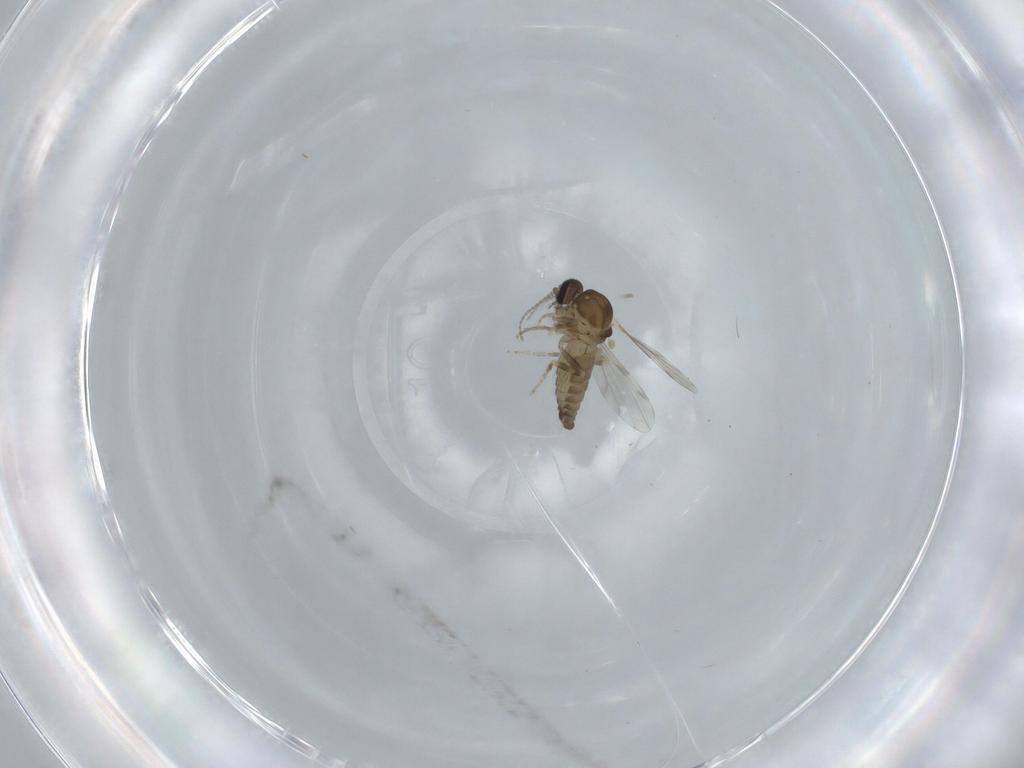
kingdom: Animalia
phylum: Arthropoda
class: Insecta
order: Diptera
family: Ceratopogonidae
